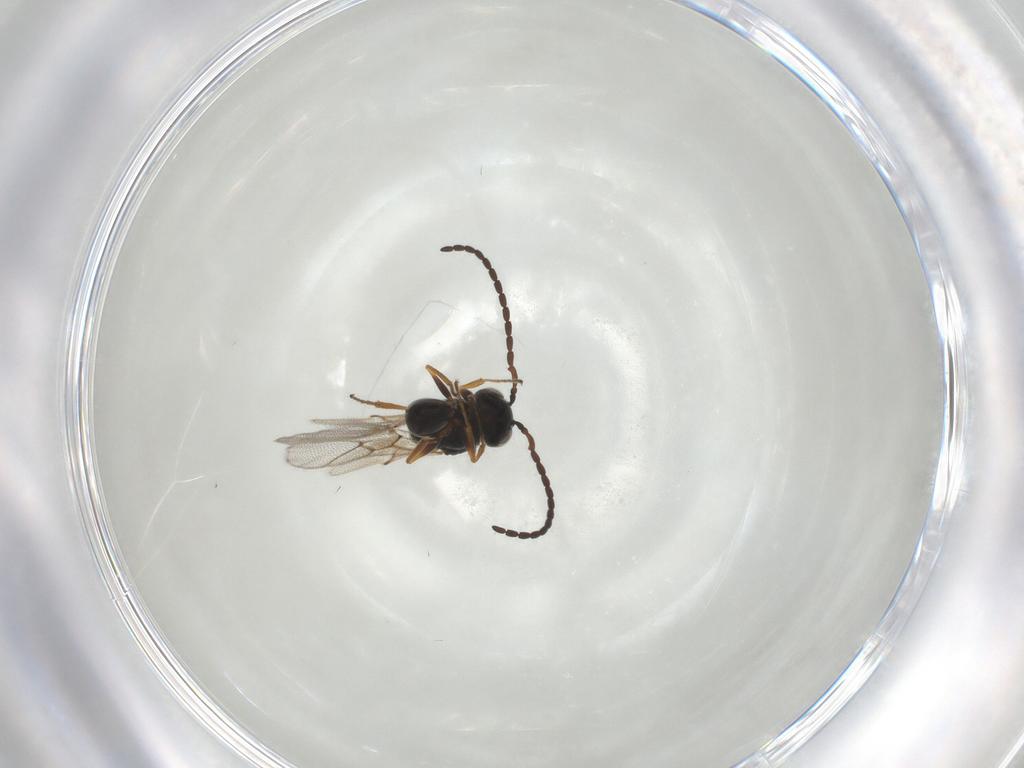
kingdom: Animalia
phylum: Arthropoda
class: Insecta
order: Hymenoptera
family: Figitidae
